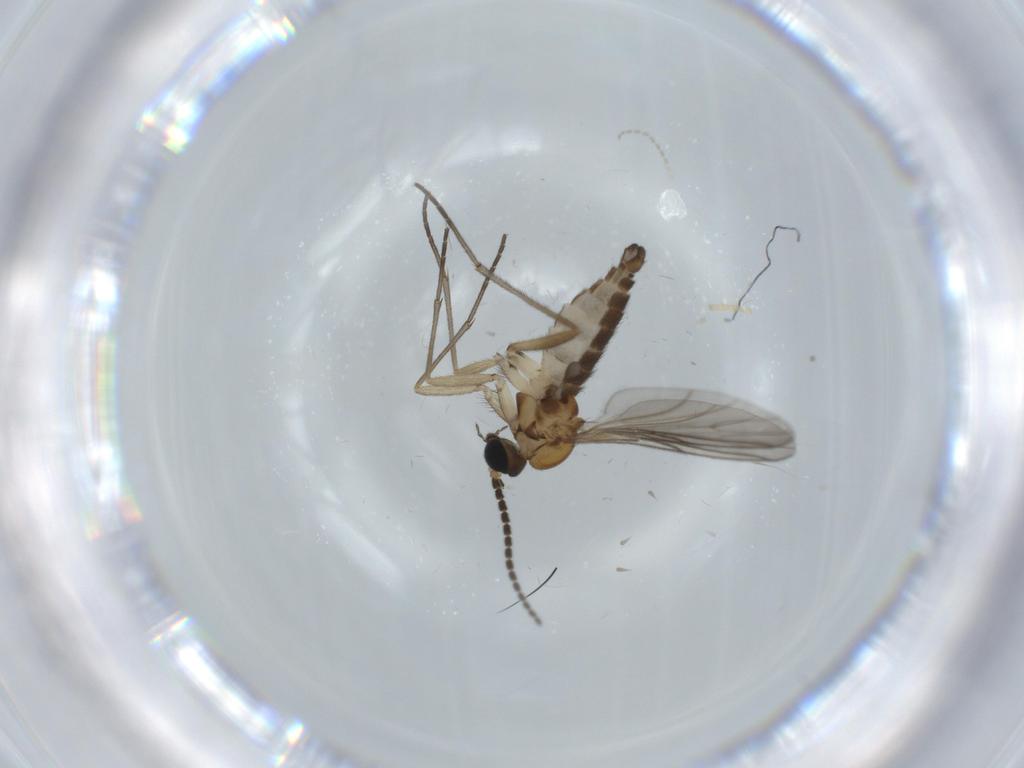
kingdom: Animalia
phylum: Arthropoda
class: Insecta
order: Diptera
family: Sciaridae
